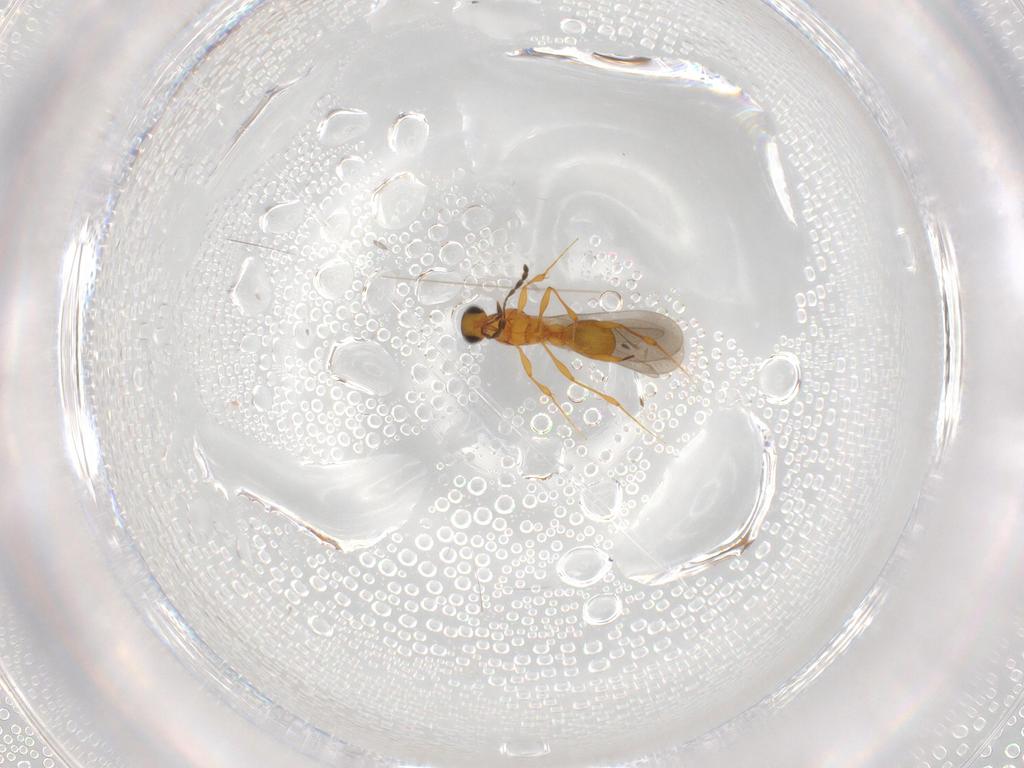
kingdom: Animalia
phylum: Arthropoda
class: Insecta
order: Hymenoptera
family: Platygastridae
